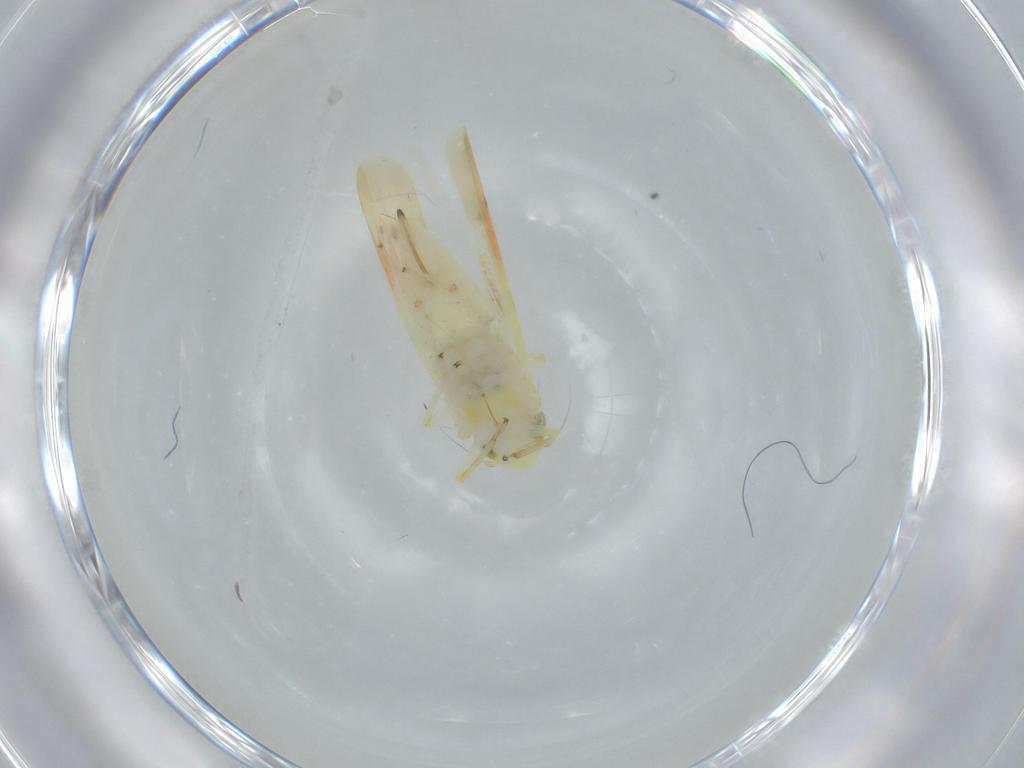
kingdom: Animalia
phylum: Arthropoda
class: Insecta
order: Hemiptera
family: Cicadellidae
